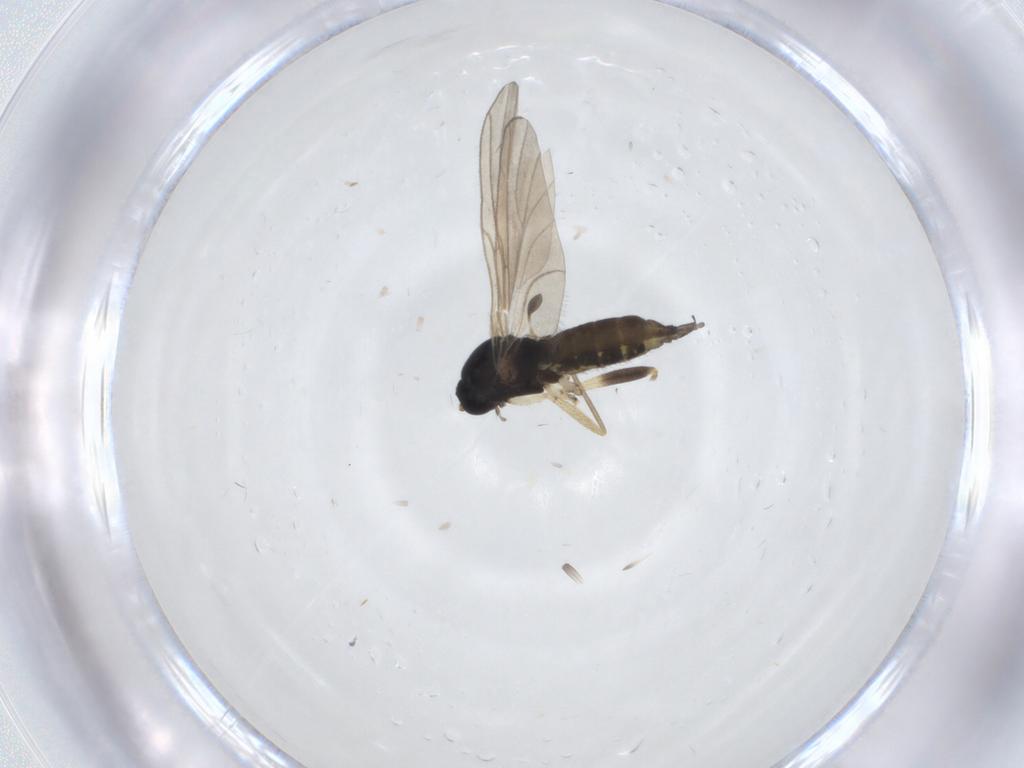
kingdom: Animalia
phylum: Arthropoda
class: Insecta
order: Diptera
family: Sciaridae
